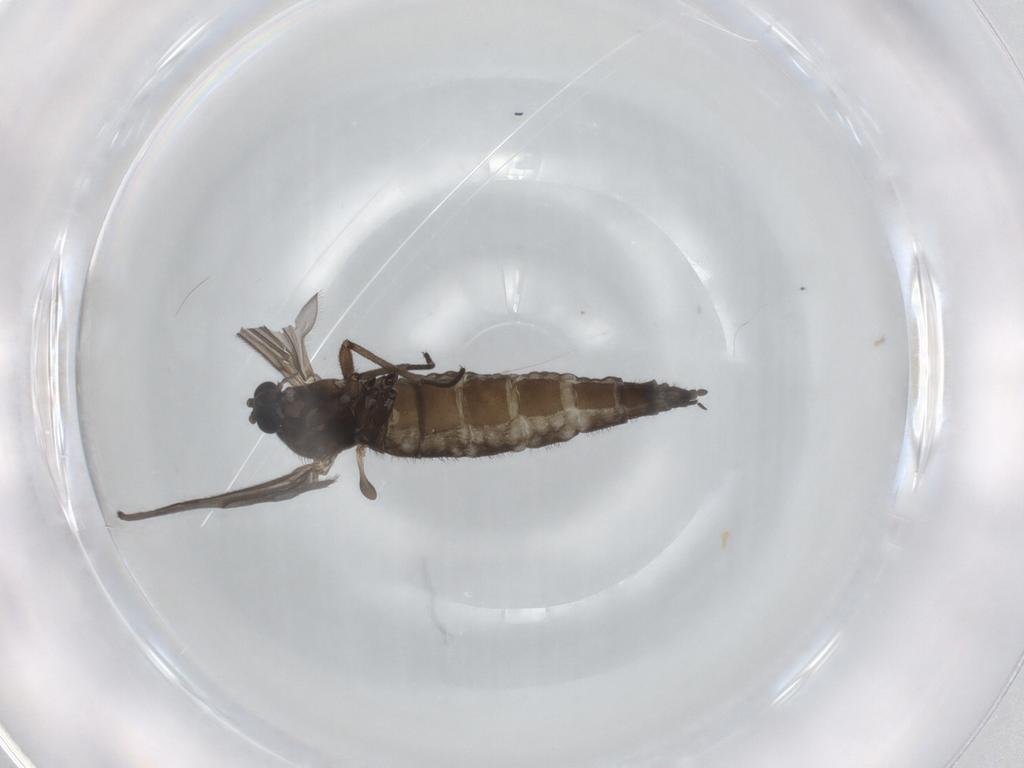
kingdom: Animalia
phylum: Arthropoda
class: Insecta
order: Diptera
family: Sciaridae
